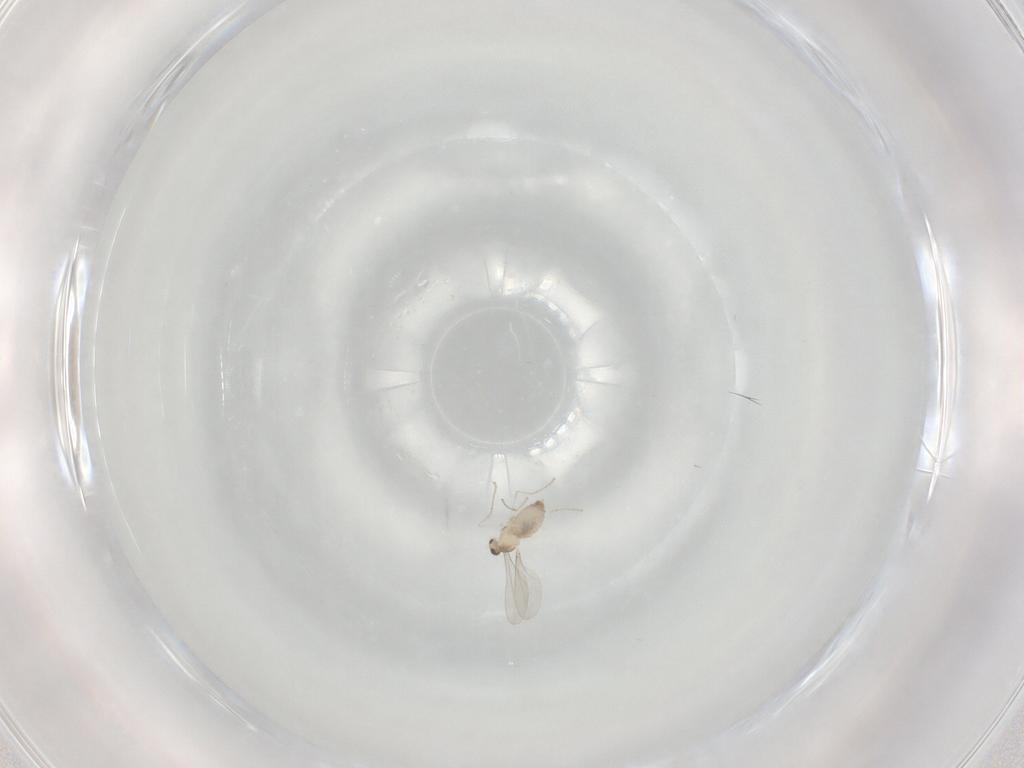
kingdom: Animalia
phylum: Arthropoda
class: Insecta
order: Diptera
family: Cecidomyiidae
